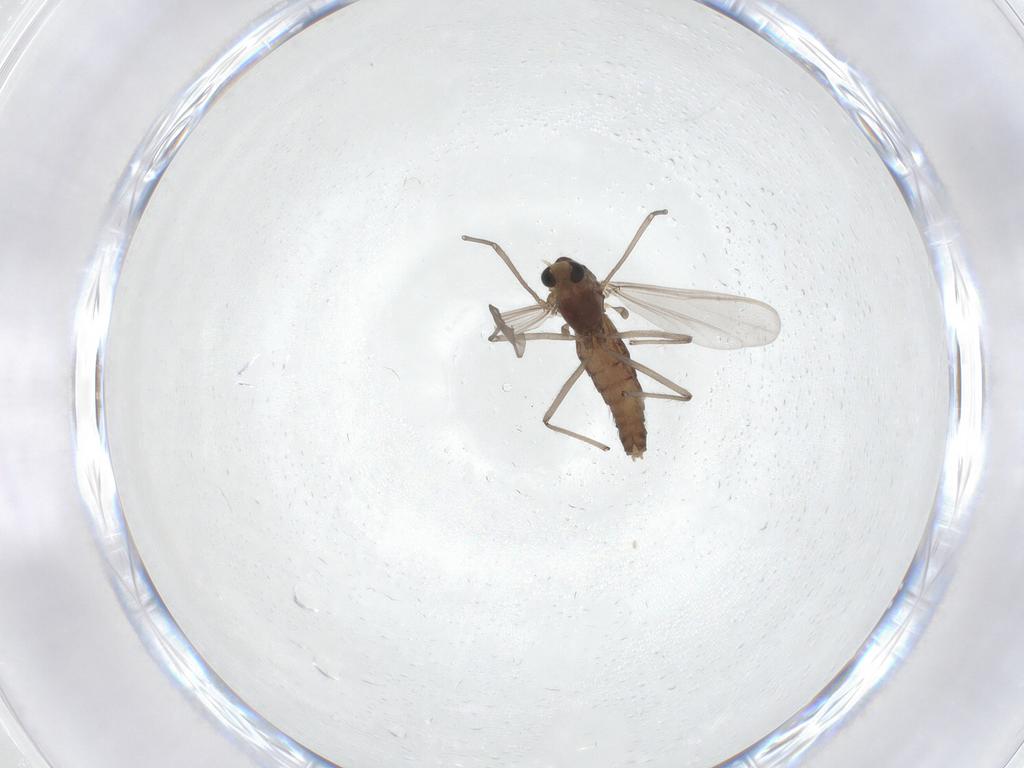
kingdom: Animalia
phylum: Arthropoda
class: Insecta
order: Diptera
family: Chironomidae
